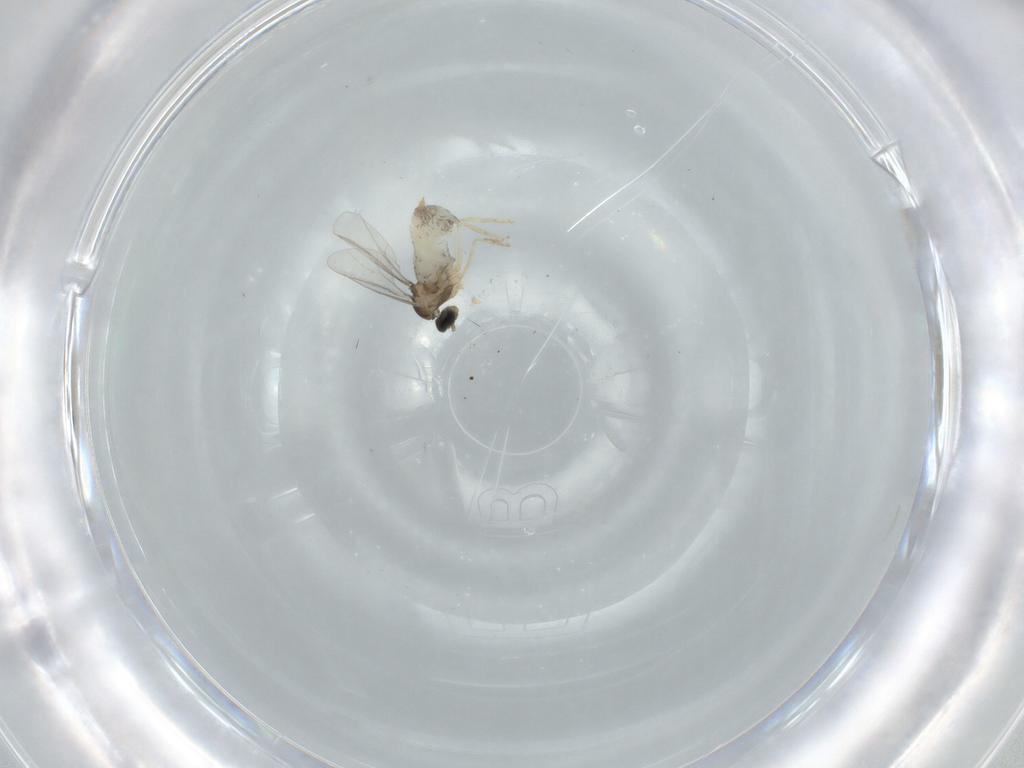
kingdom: Animalia
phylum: Arthropoda
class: Insecta
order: Diptera
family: Cecidomyiidae
